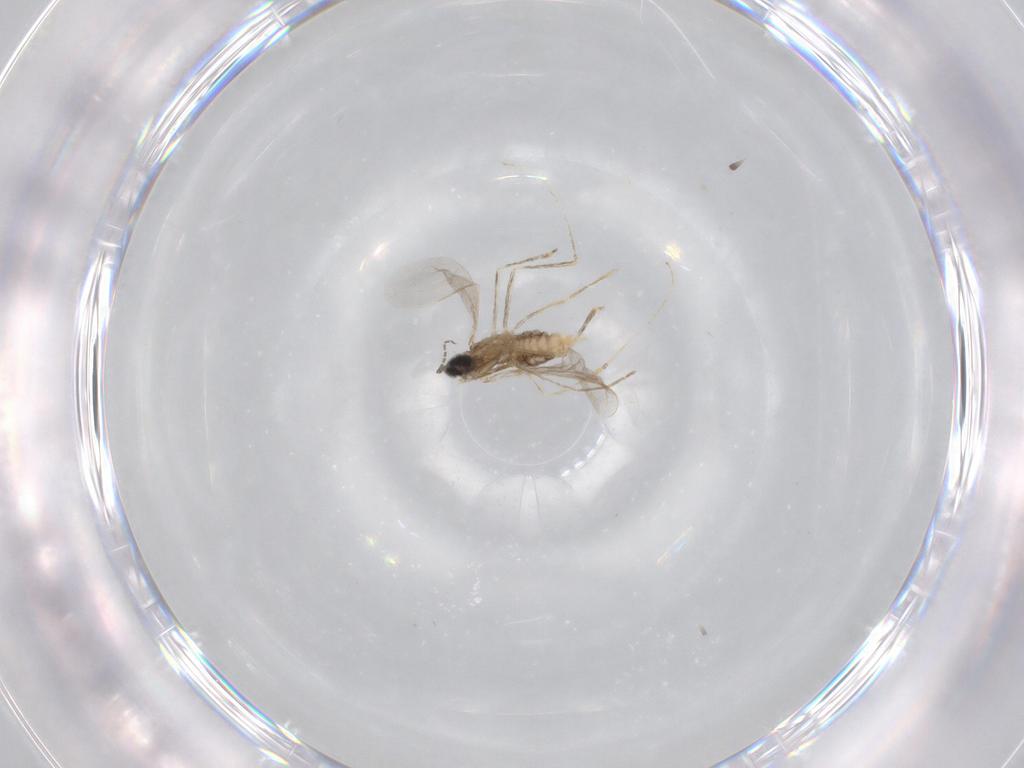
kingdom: Animalia
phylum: Arthropoda
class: Insecta
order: Diptera
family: Cecidomyiidae
